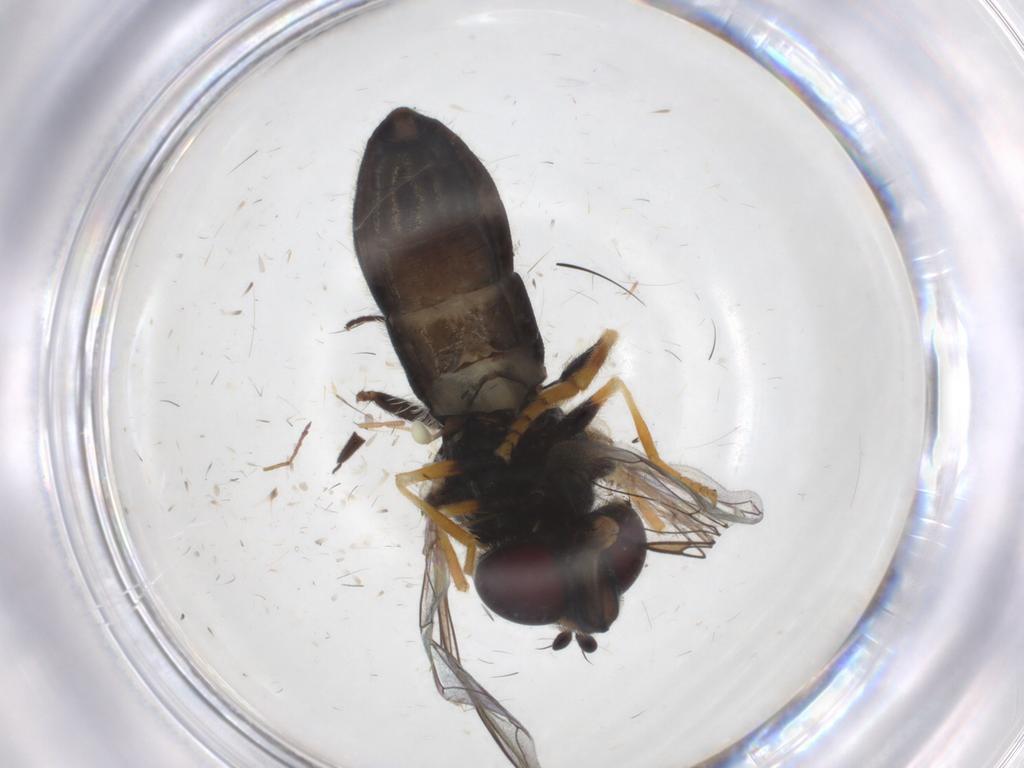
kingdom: Animalia
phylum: Arthropoda
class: Insecta
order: Diptera
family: Syrphidae
